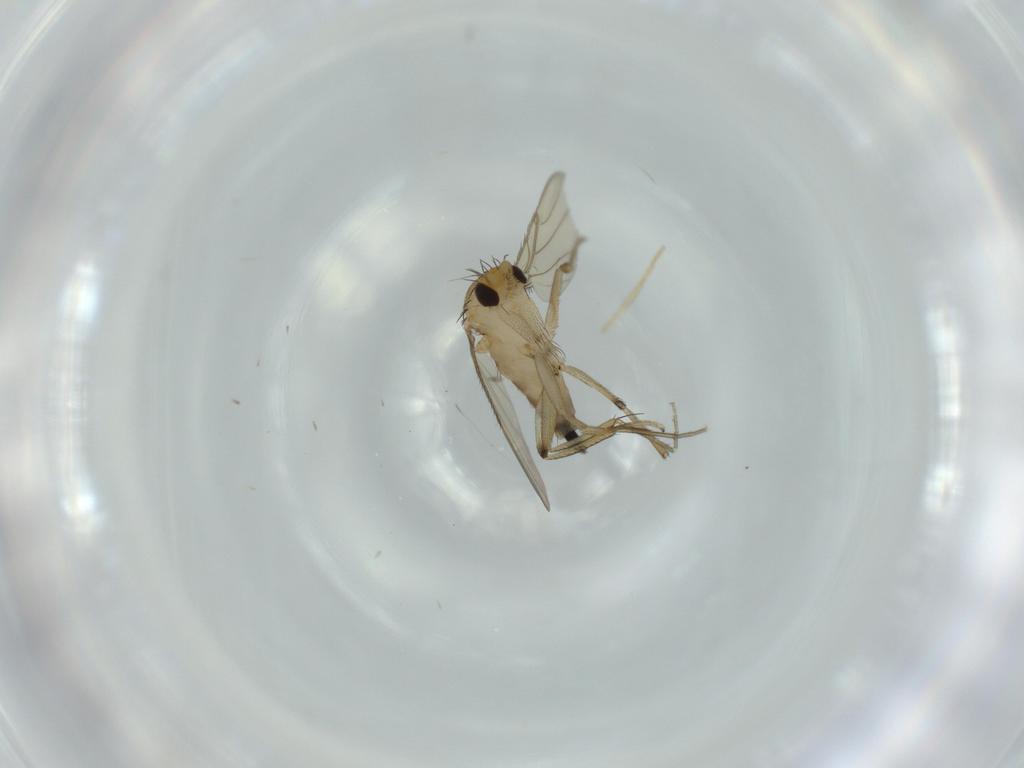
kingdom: Animalia
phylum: Arthropoda
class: Insecta
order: Diptera
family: Phoridae
